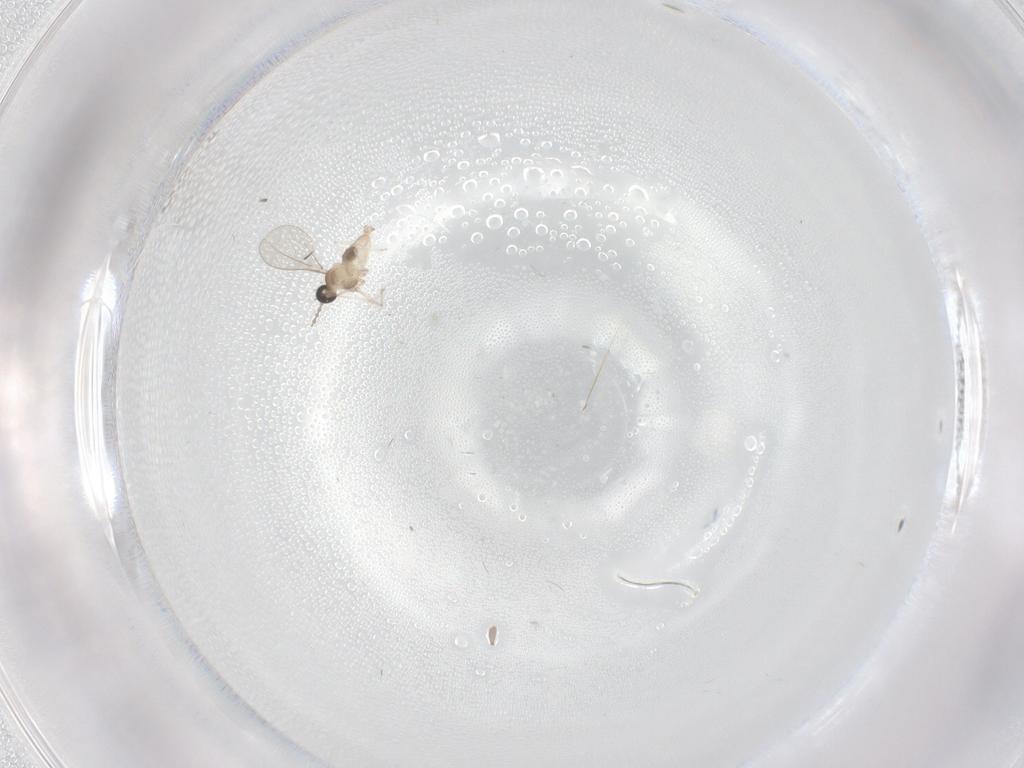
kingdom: Animalia
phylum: Arthropoda
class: Insecta
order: Diptera
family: Cecidomyiidae
